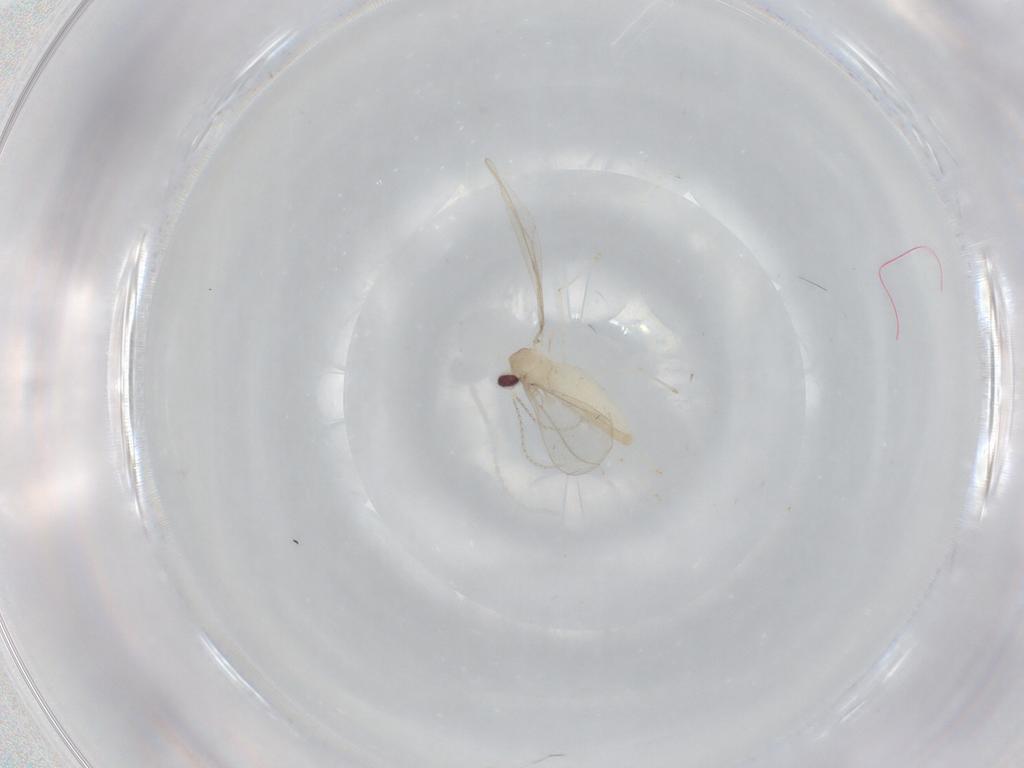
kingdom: Animalia
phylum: Arthropoda
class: Insecta
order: Diptera
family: Cecidomyiidae
